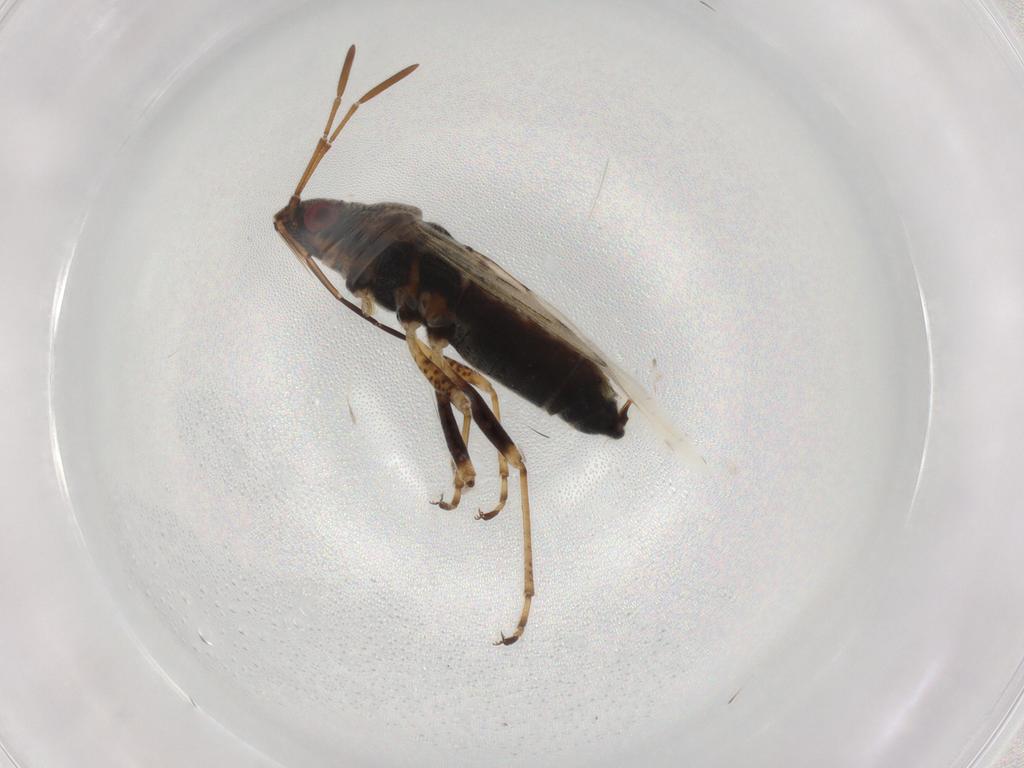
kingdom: Animalia
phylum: Arthropoda
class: Insecta
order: Hemiptera
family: Lygaeidae
